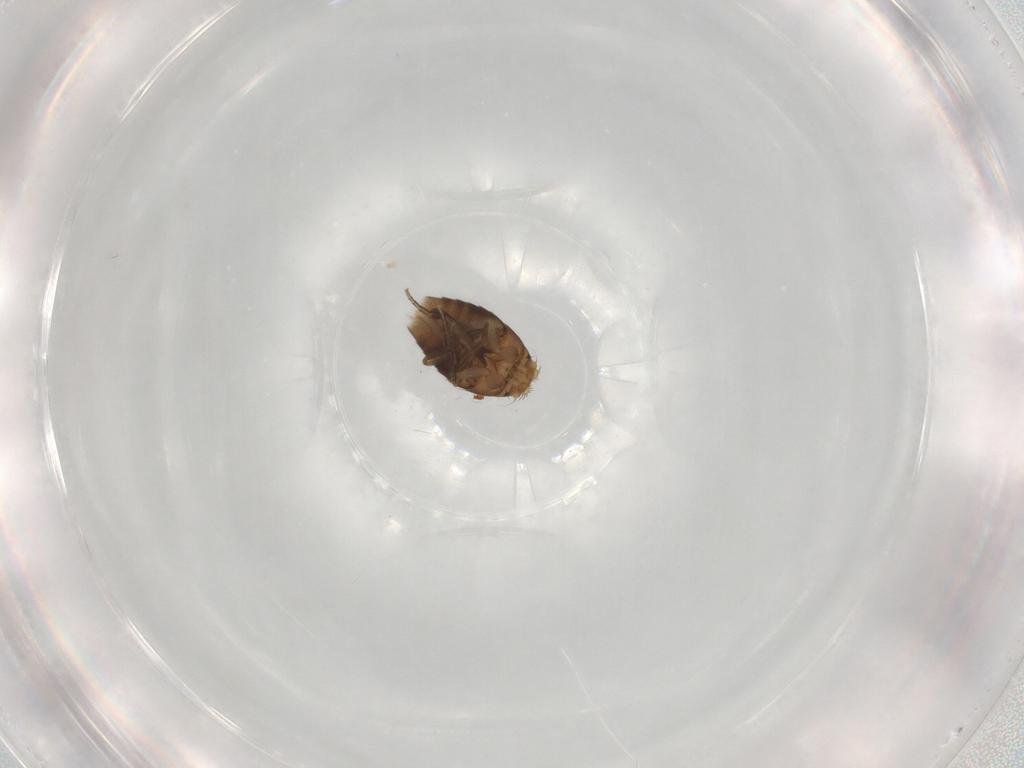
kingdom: Animalia
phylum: Arthropoda
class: Insecta
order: Diptera
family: Phoridae
